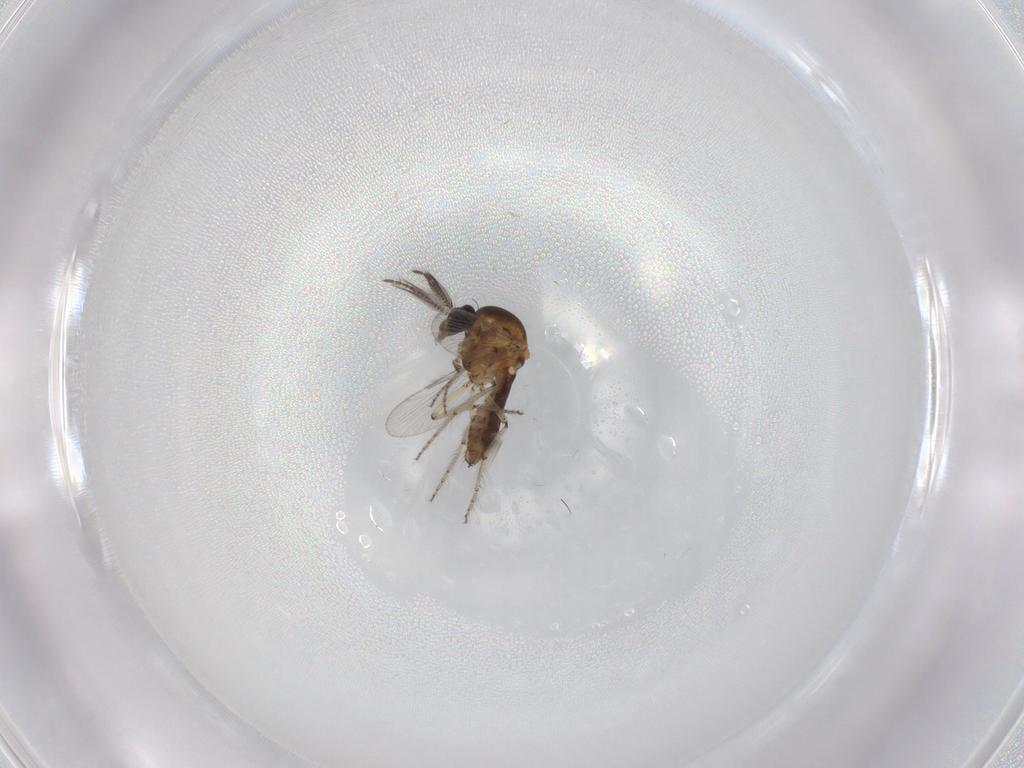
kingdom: Animalia
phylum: Arthropoda
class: Insecta
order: Diptera
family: Ceratopogonidae
